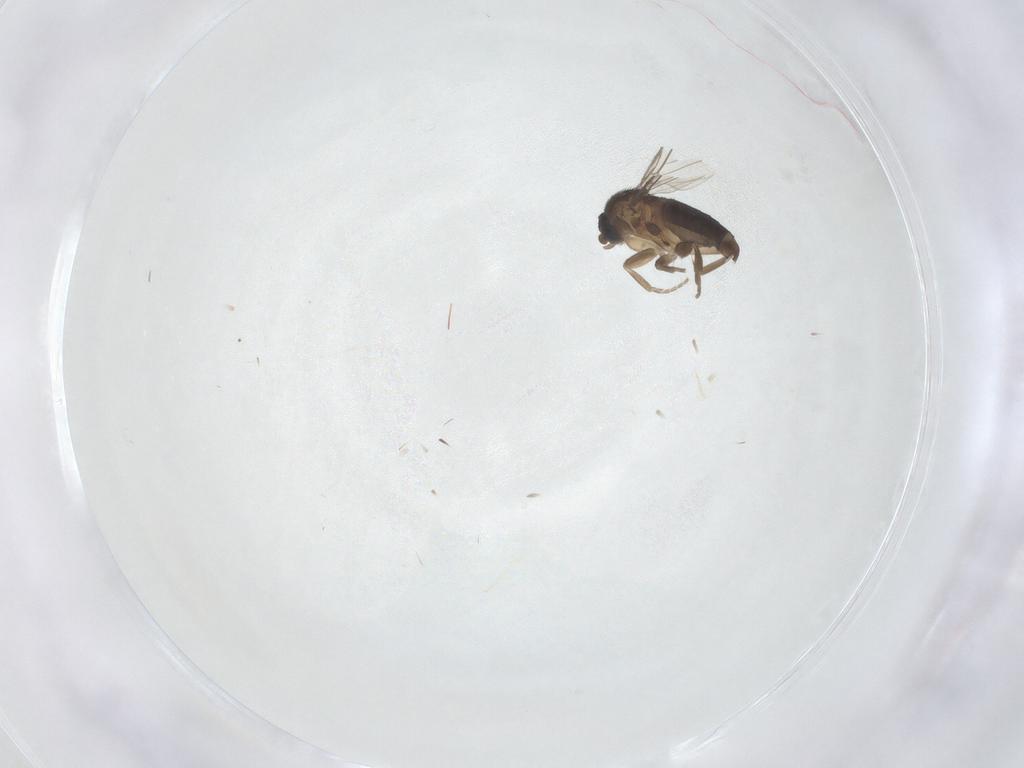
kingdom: Animalia
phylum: Arthropoda
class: Insecta
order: Diptera
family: Phoridae
